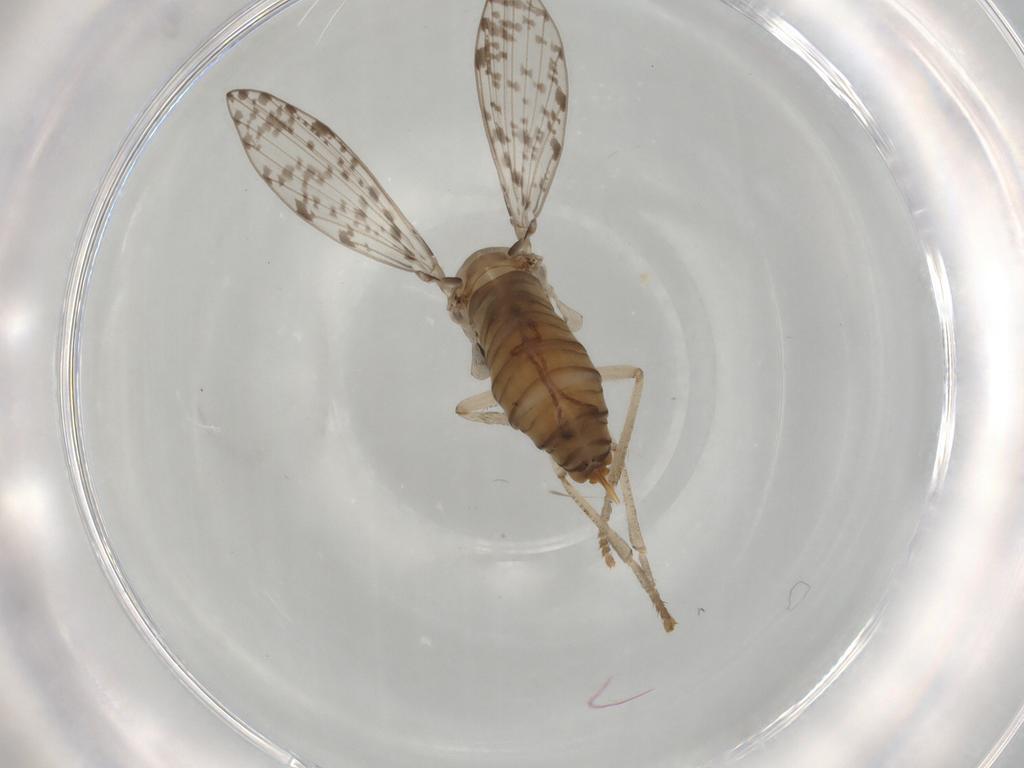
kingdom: Animalia
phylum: Arthropoda
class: Insecta
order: Diptera
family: Psychodidae
